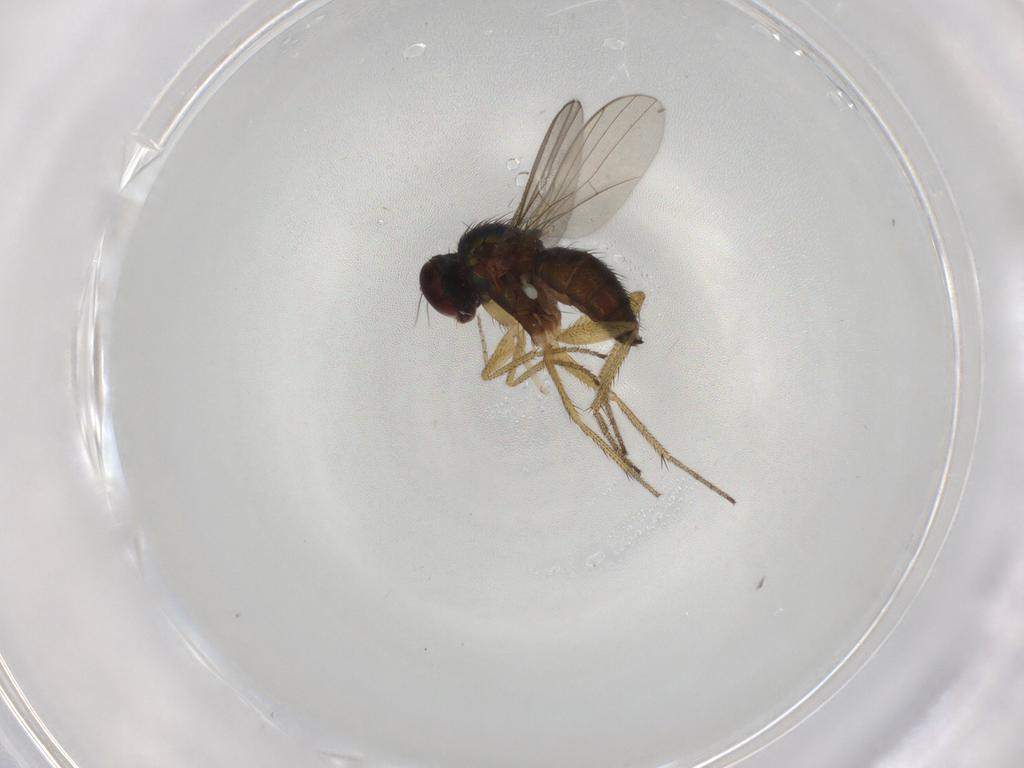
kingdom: Animalia
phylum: Arthropoda
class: Insecta
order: Diptera
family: Dolichopodidae
